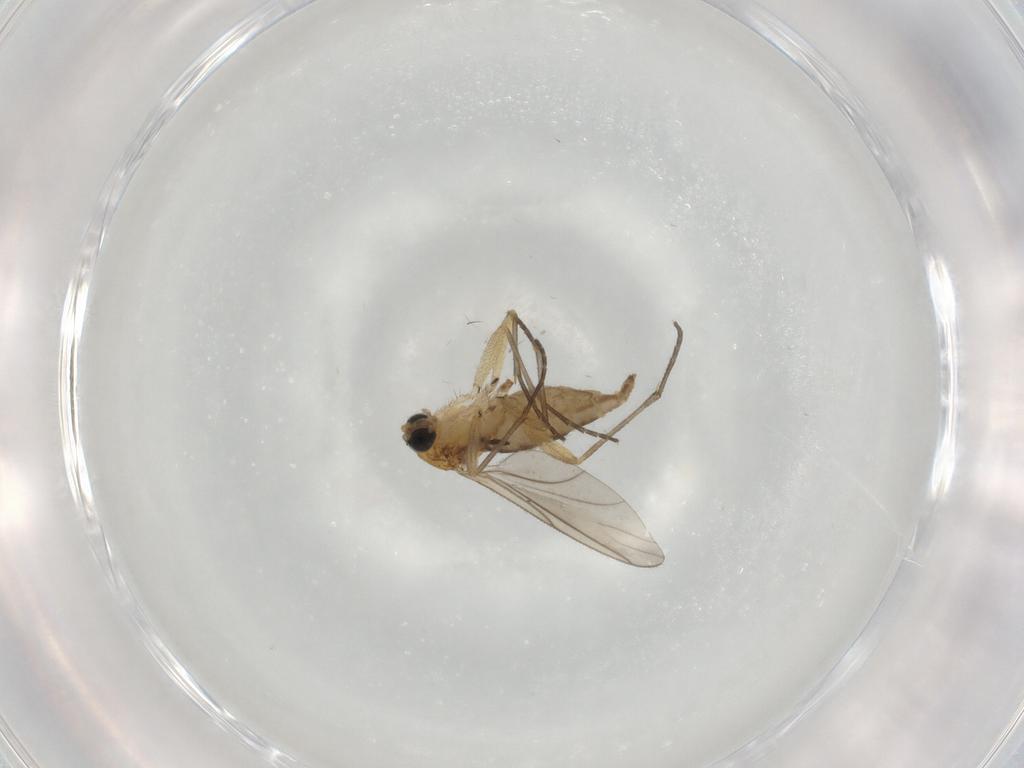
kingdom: Animalia
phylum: Arthropoda
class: Insecta
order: Diptera
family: Sciaridae
